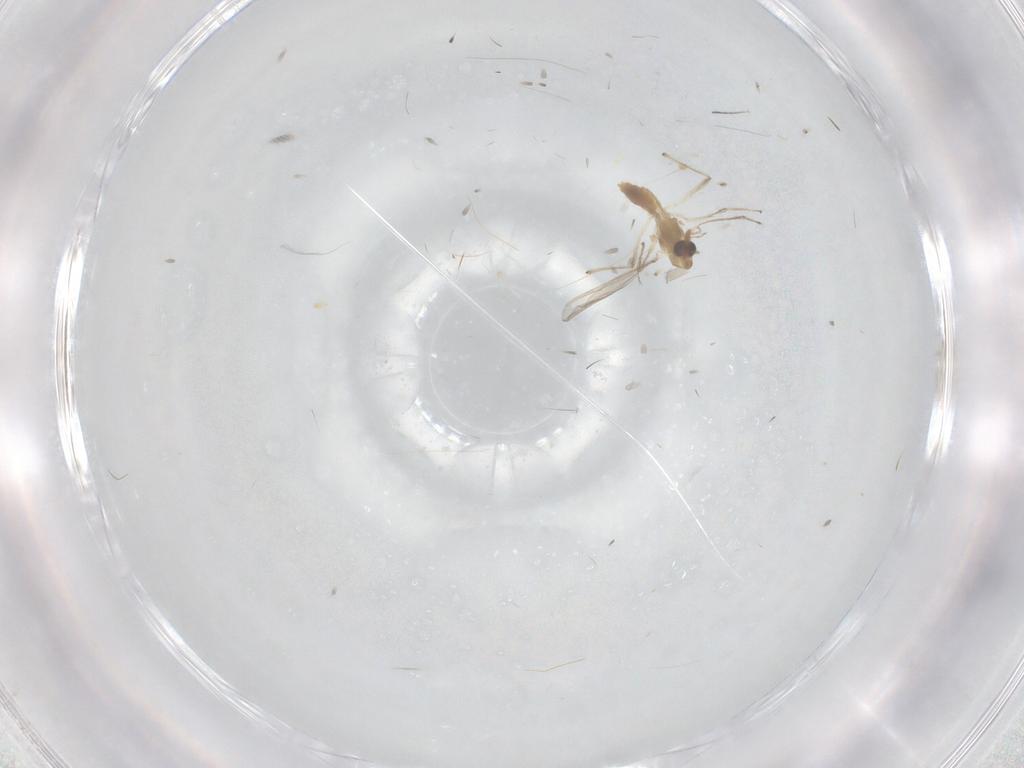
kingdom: Animalia
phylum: Arthropoda
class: Insecta
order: Diptera
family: Chironomidae
